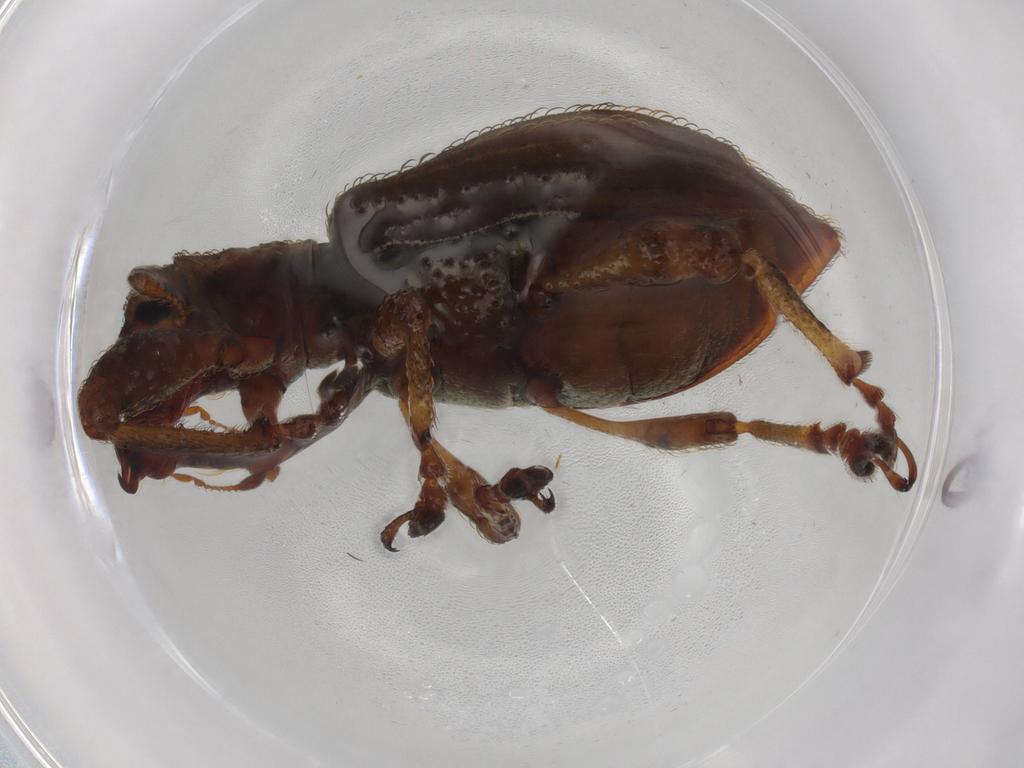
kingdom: Animalia
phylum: Arthropoda
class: Insecta
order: Coleoptera
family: Curculionidae
